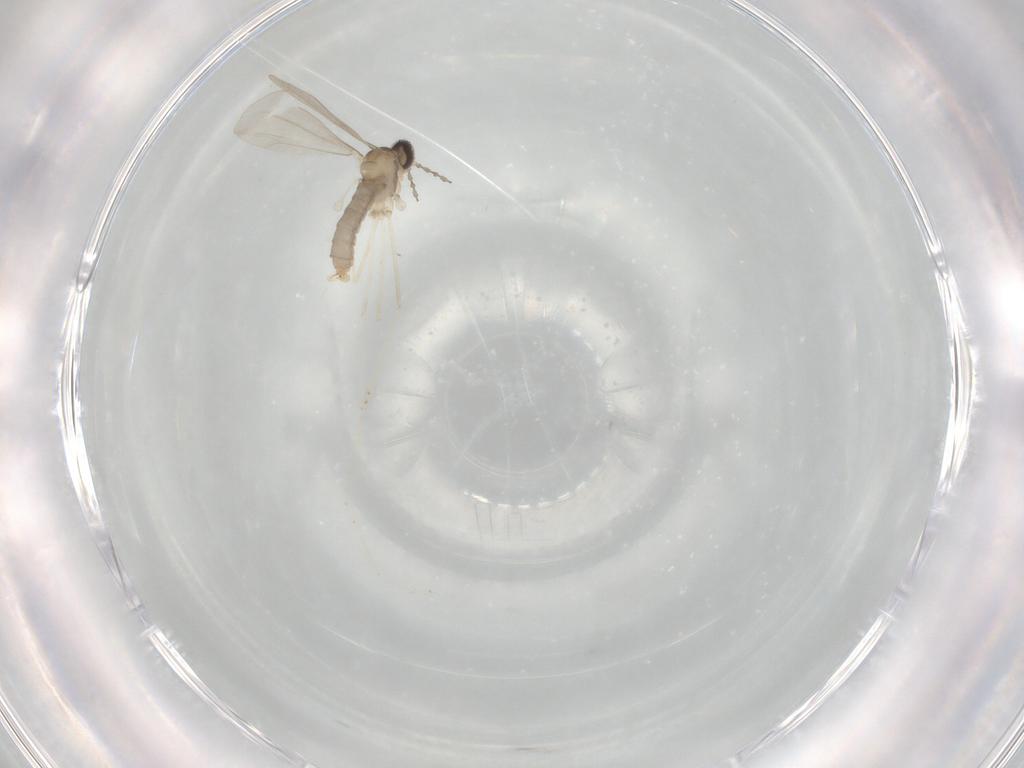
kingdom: Animalia
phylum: Arthropoda
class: Insecta
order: Diptera
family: Cecidomyiidae
